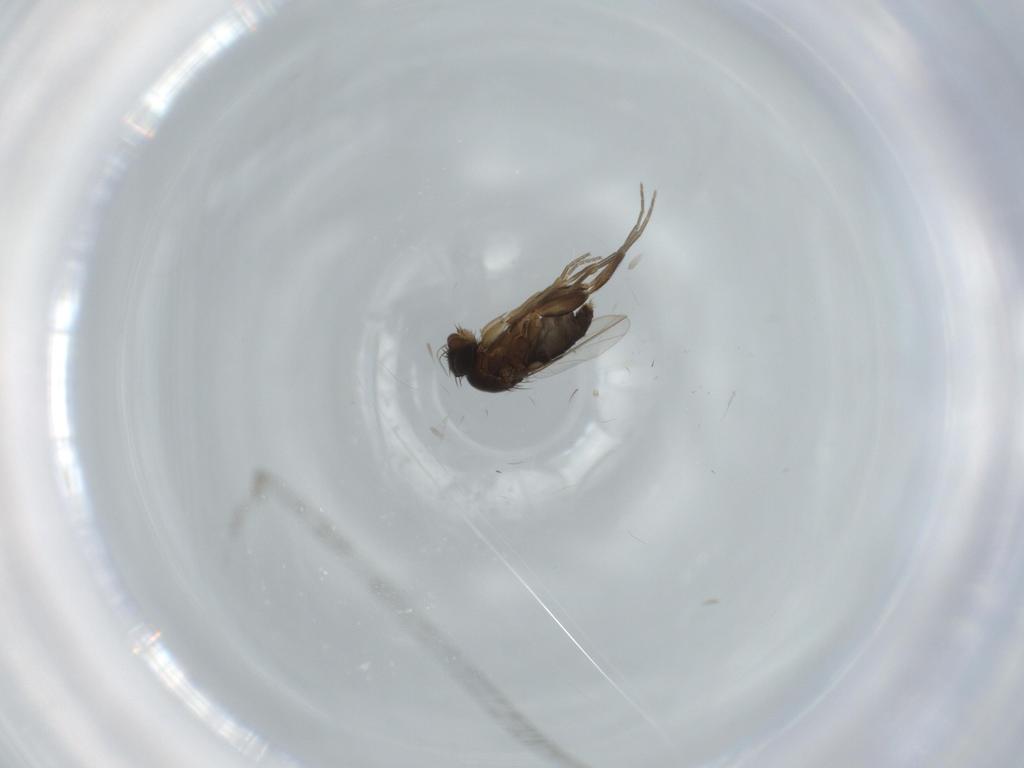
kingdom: Animalia
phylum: Arthropoda
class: Insecta
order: Diptera
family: Phoridae
